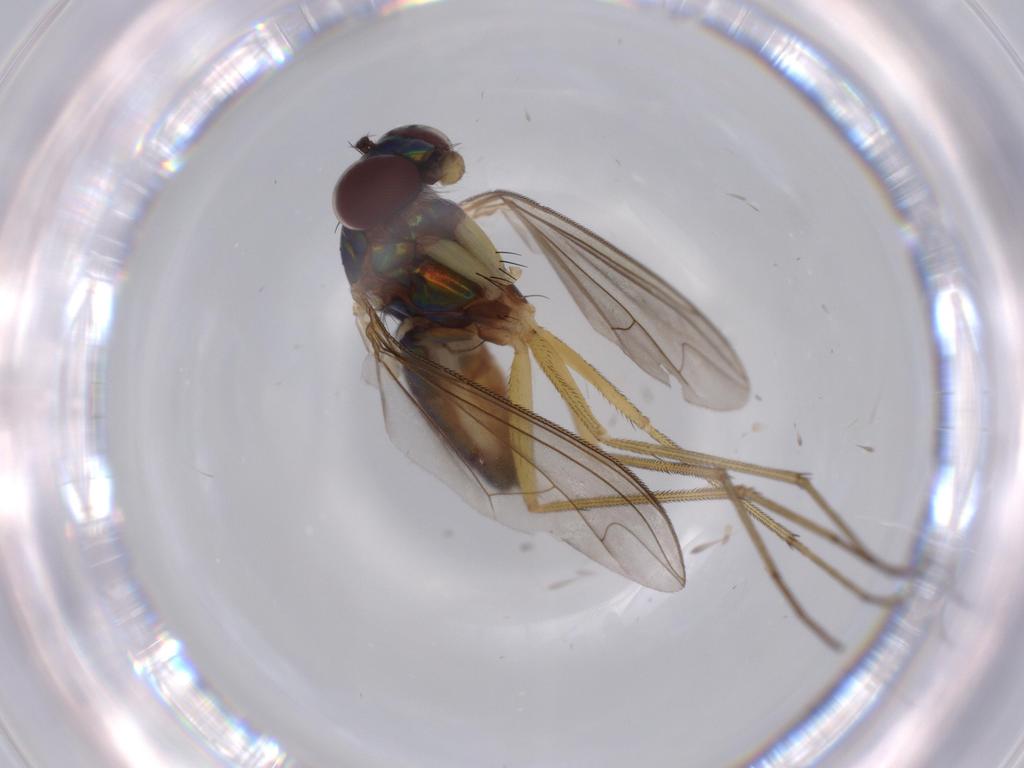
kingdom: Animalia
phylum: Arthropoda
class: Insecta
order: Diptera
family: Dolichopodidae
